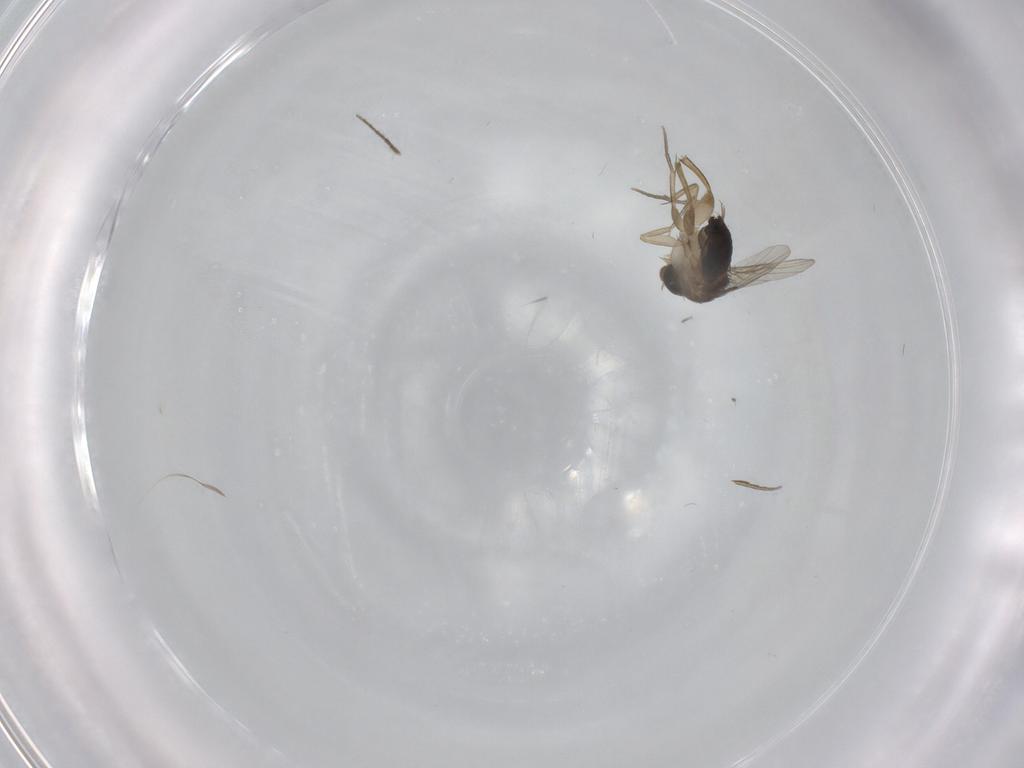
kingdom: Animalia
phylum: Arthropoda
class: Insecta
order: Diptera
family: Phoridae
